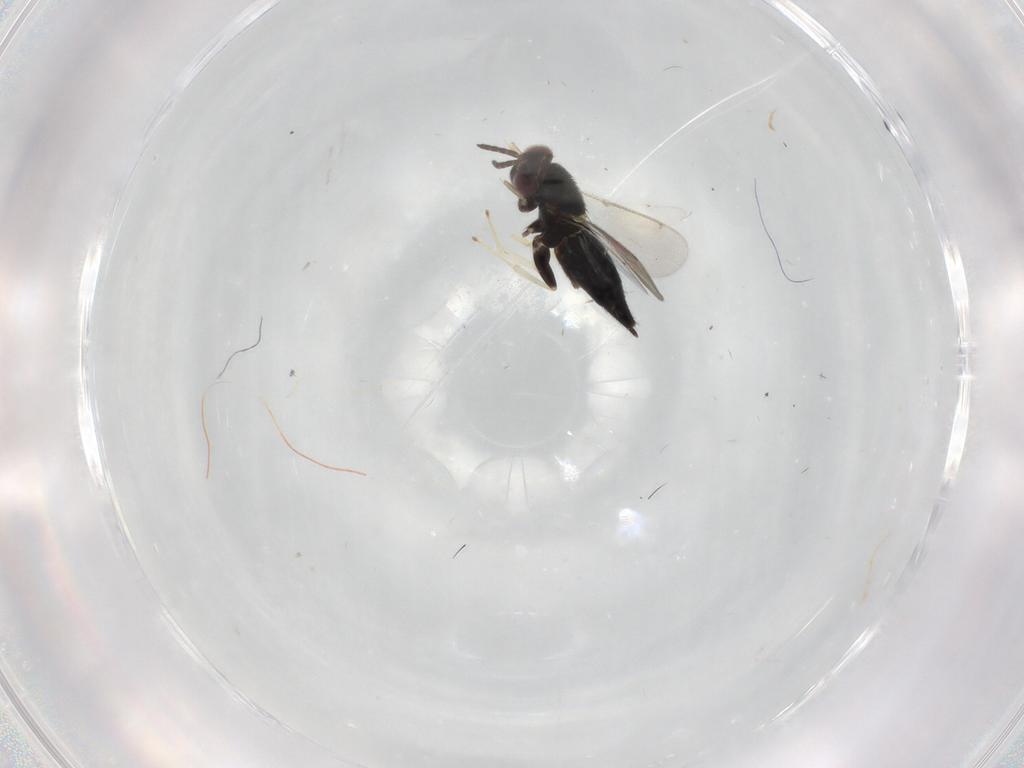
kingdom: Animalia
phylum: Arthropoda
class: Insecta
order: Hymenoptera
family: Aphelinidae
